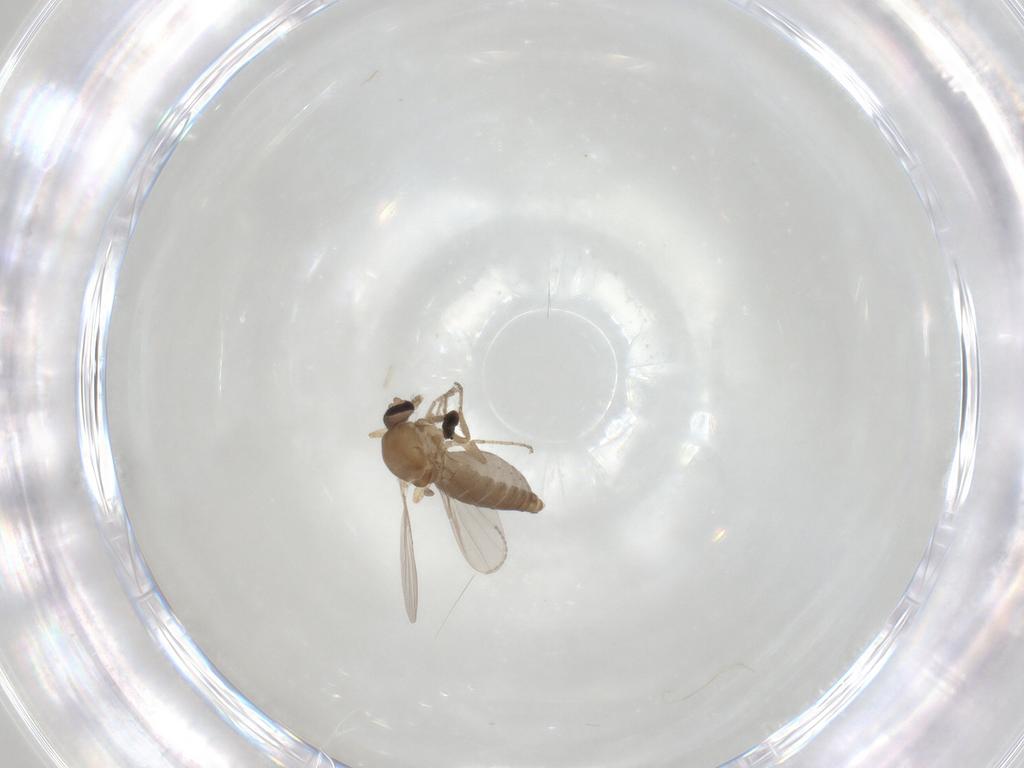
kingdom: Animalia
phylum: Arthropoda
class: Insecta
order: Diptera
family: Ceratopogonidae
